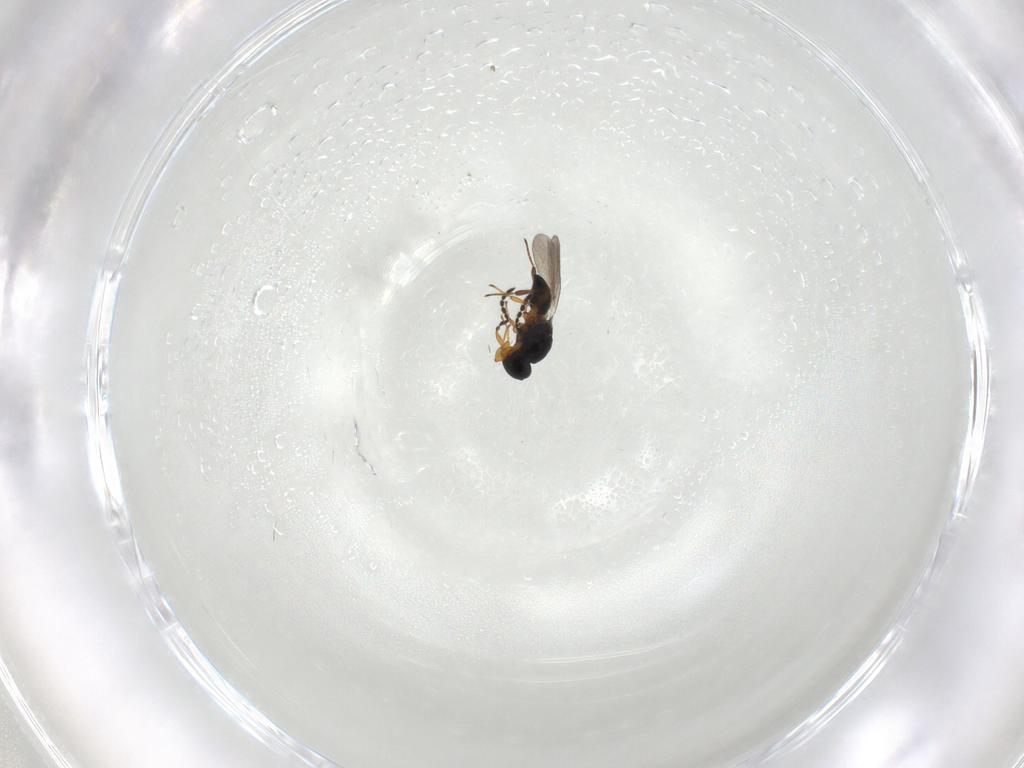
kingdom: Animalia
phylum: Arthropoda
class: Insecta
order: Hymenoptera
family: Platygastridae
